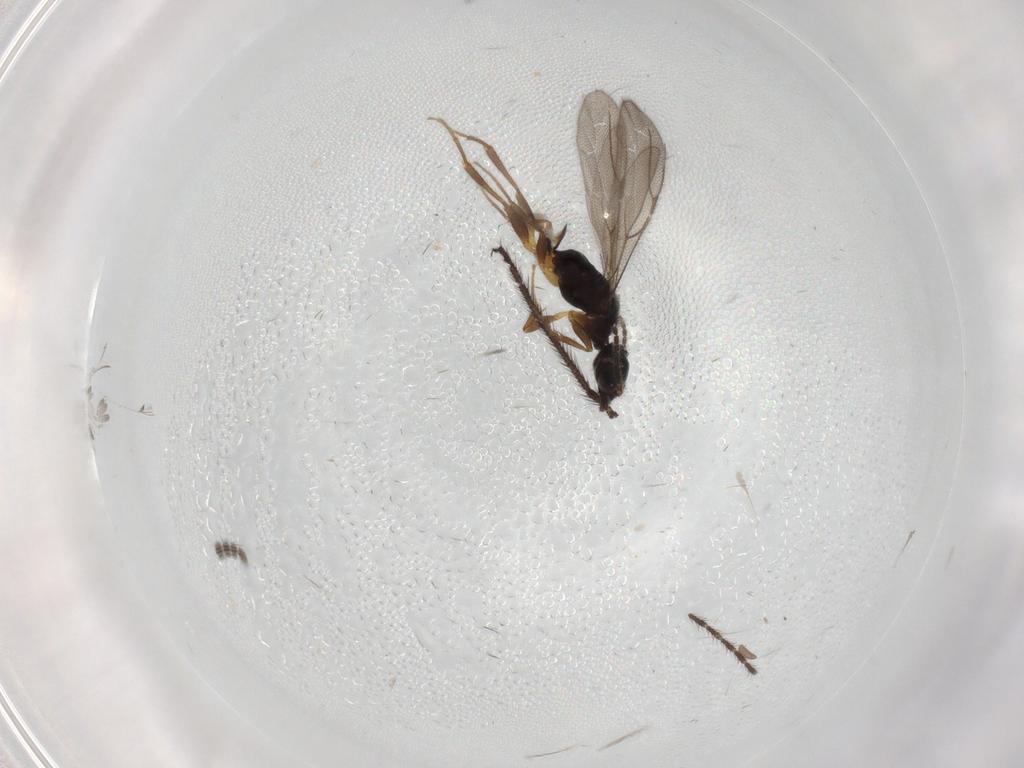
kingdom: Animalia
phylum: Arthropoda
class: Insecta
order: Hymenoptera
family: Bethylidae
